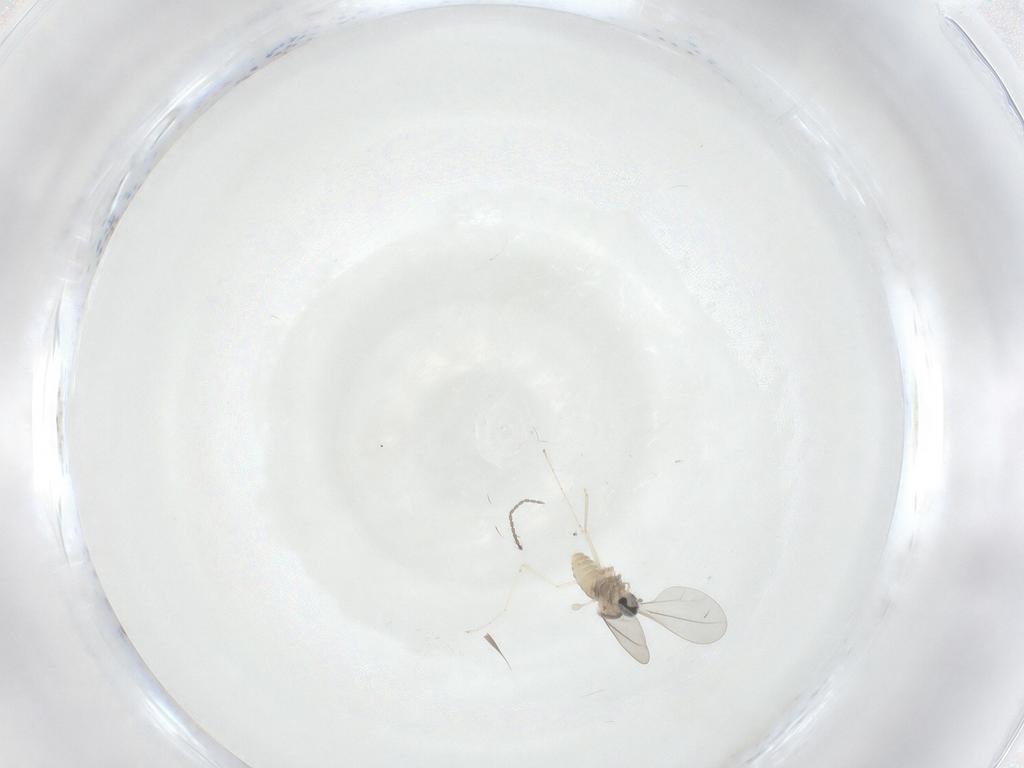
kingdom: Animalia
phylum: Arthropoda
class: Insecta
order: Diptera
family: Cecidomyiidae
